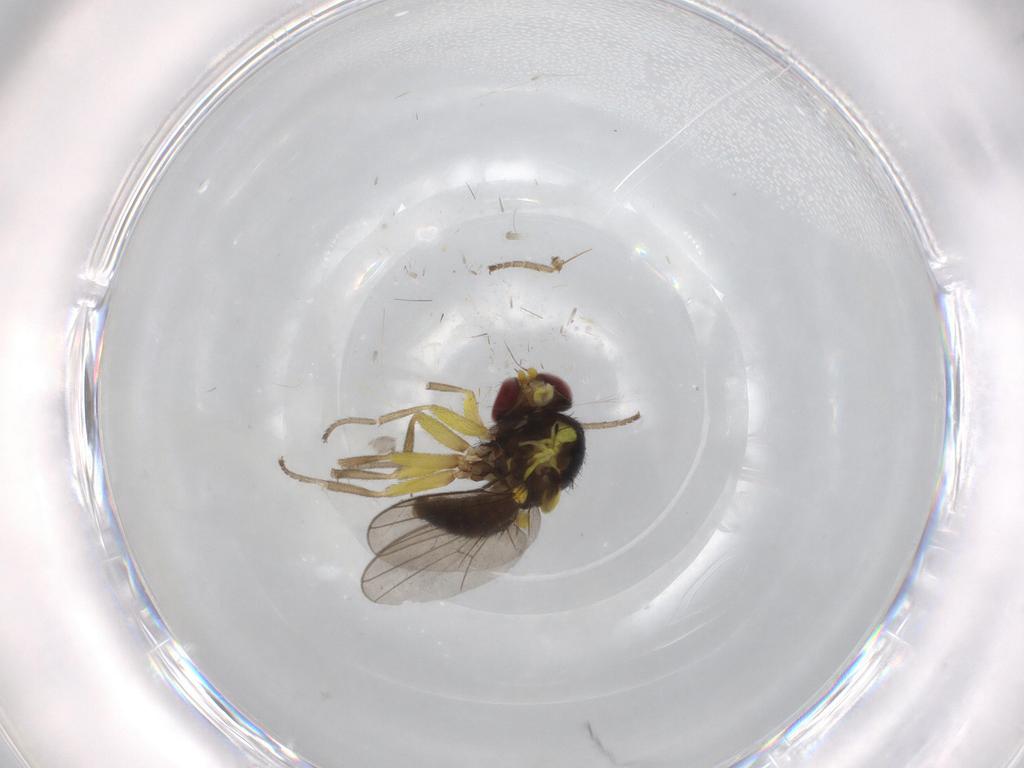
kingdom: Animalia
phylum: Arthropoda
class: Insecta
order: Diptera
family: Limoniidae
